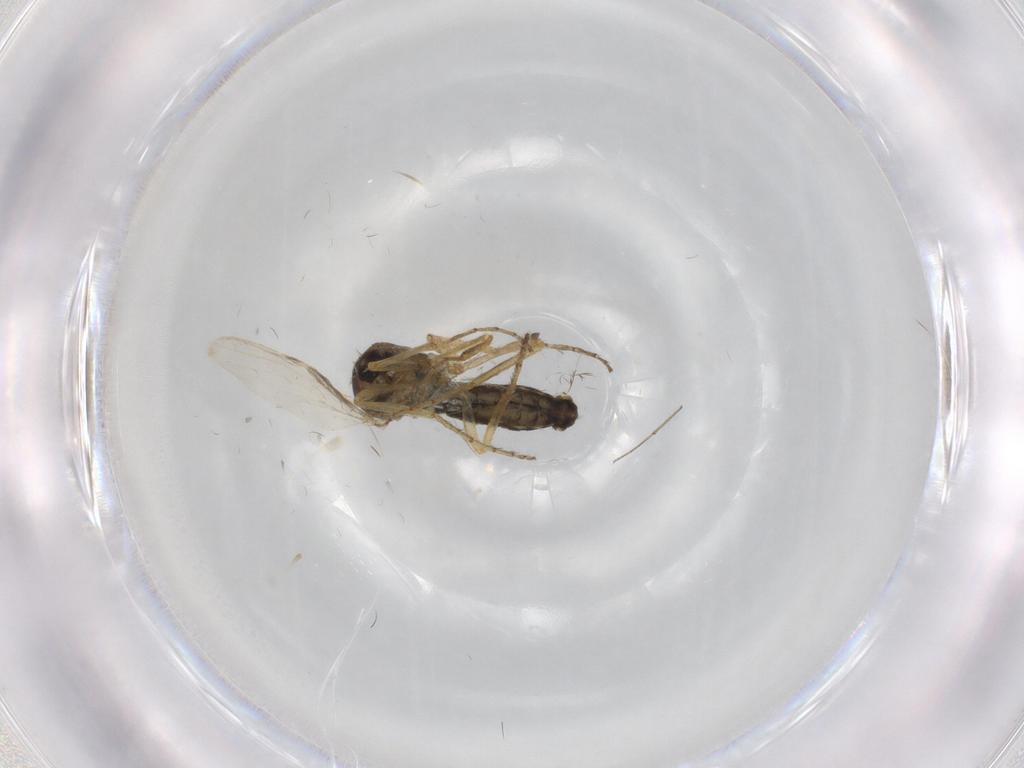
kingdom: Animalia
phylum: Arthropoda
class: Insecta
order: Diptera
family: Ceratopogonidae
